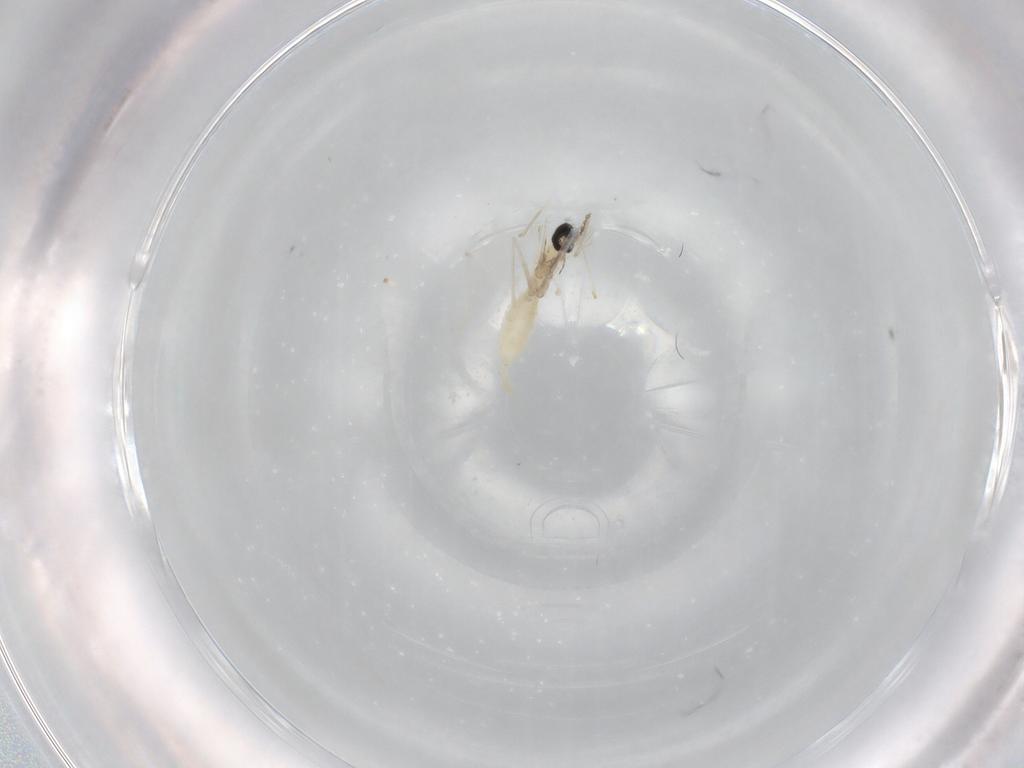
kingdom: Animalia
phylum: Arthropoda
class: Insecta
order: Diptera
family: Cecidomyiidae
